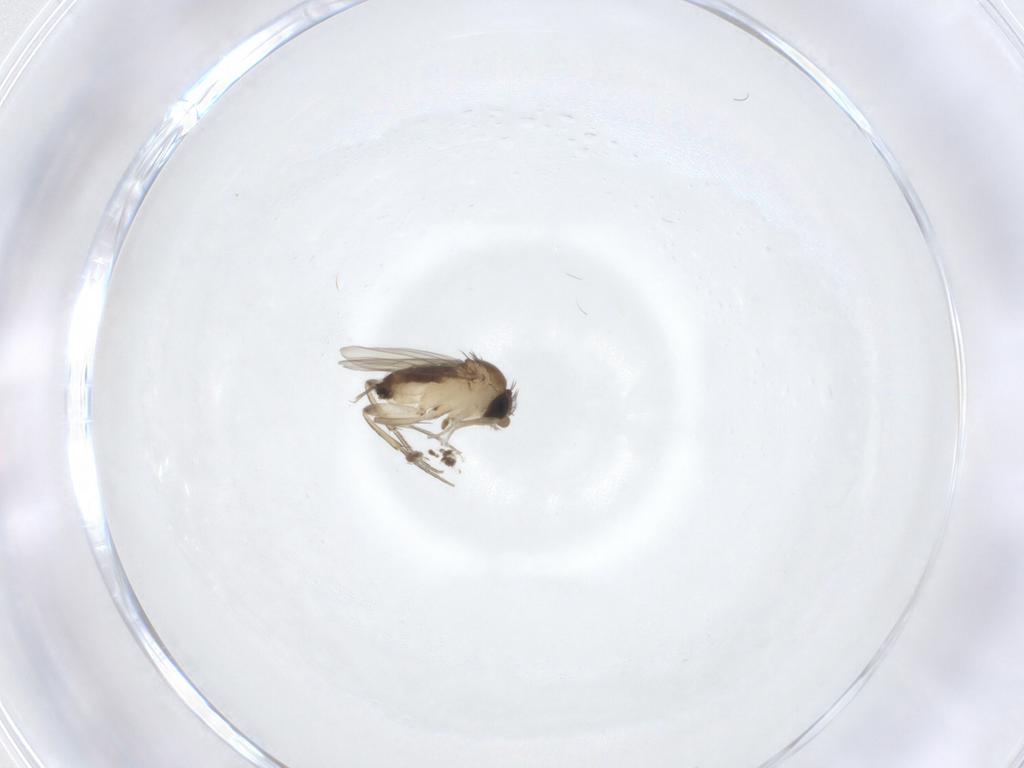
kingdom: Animalia
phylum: Arthropoda
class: Insecta
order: Diptera
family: Phoridae
